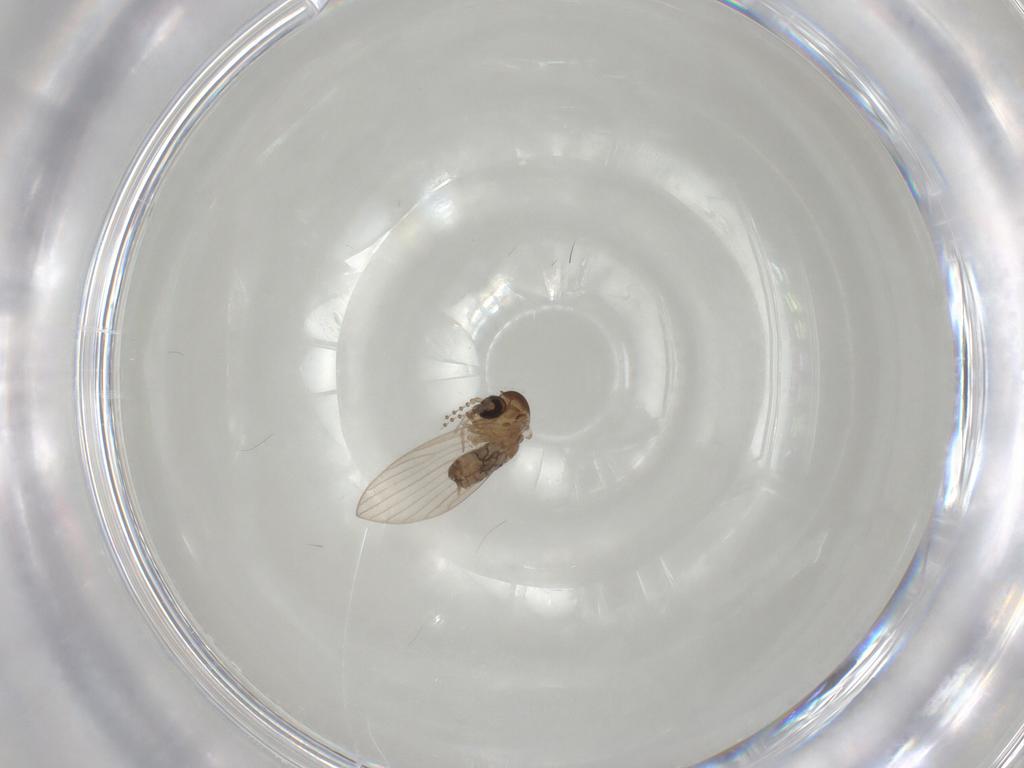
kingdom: Animalia
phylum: Arthropoda
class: Insecta
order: Diptera
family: Psychodidae
